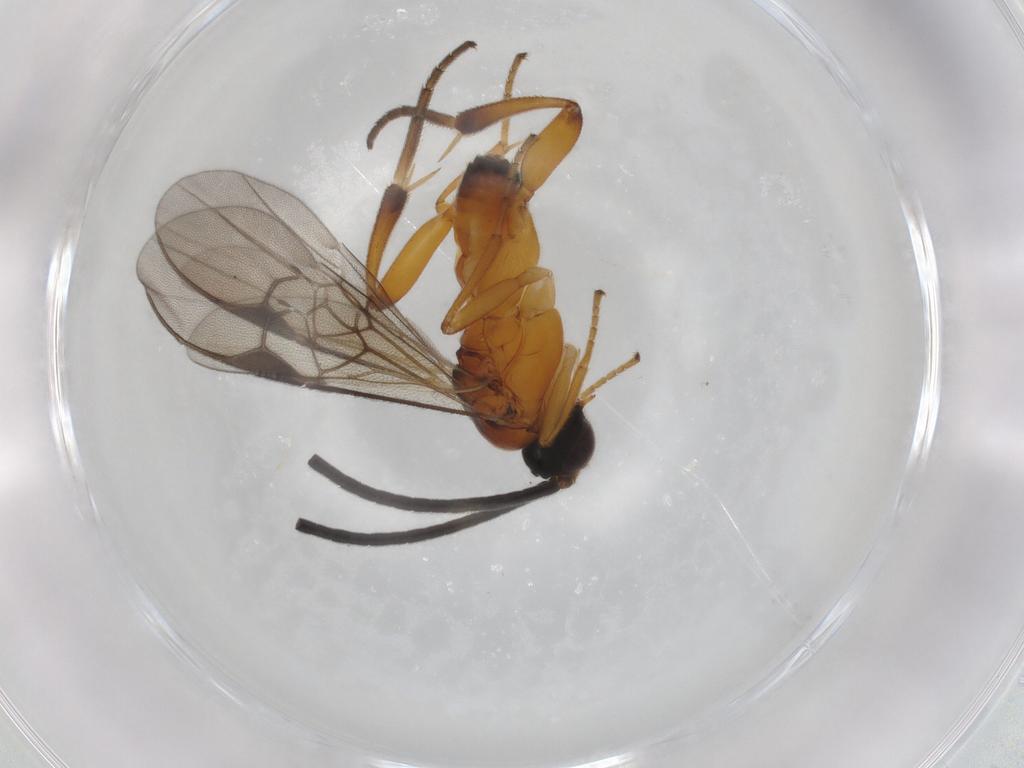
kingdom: Animalia
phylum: Arthropoda
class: Insecta
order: Hymenoptera
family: Braconidae
